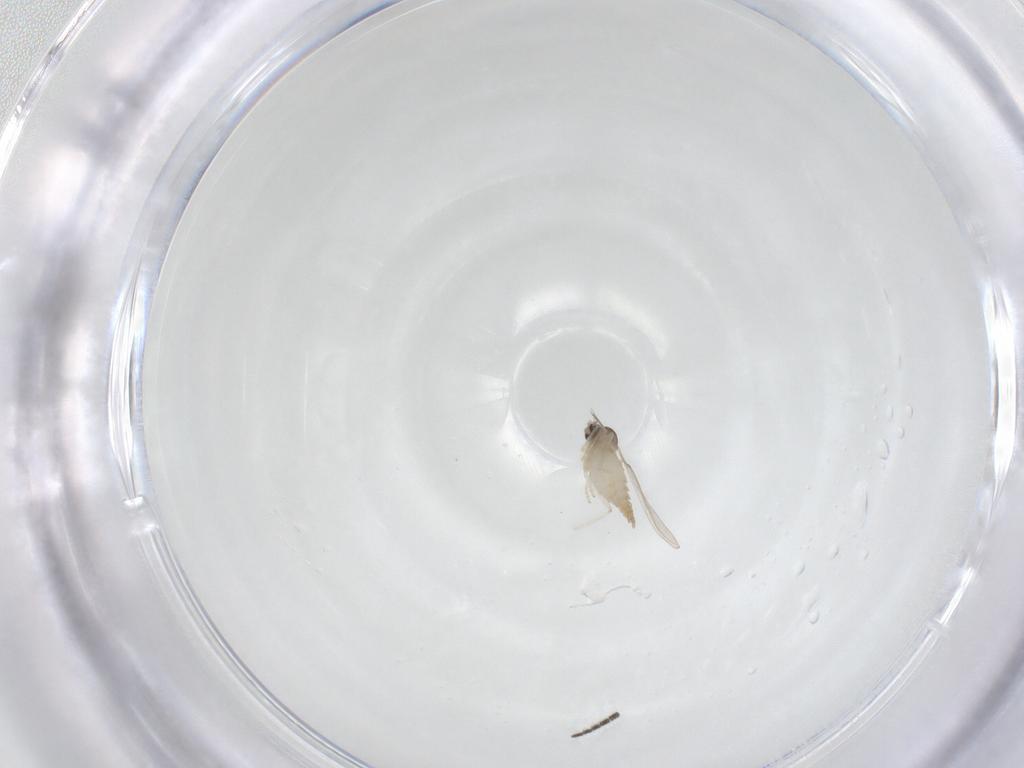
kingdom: Animalia
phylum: Arthropoda
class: Insecta
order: Diptera
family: Cecidomyiidae
